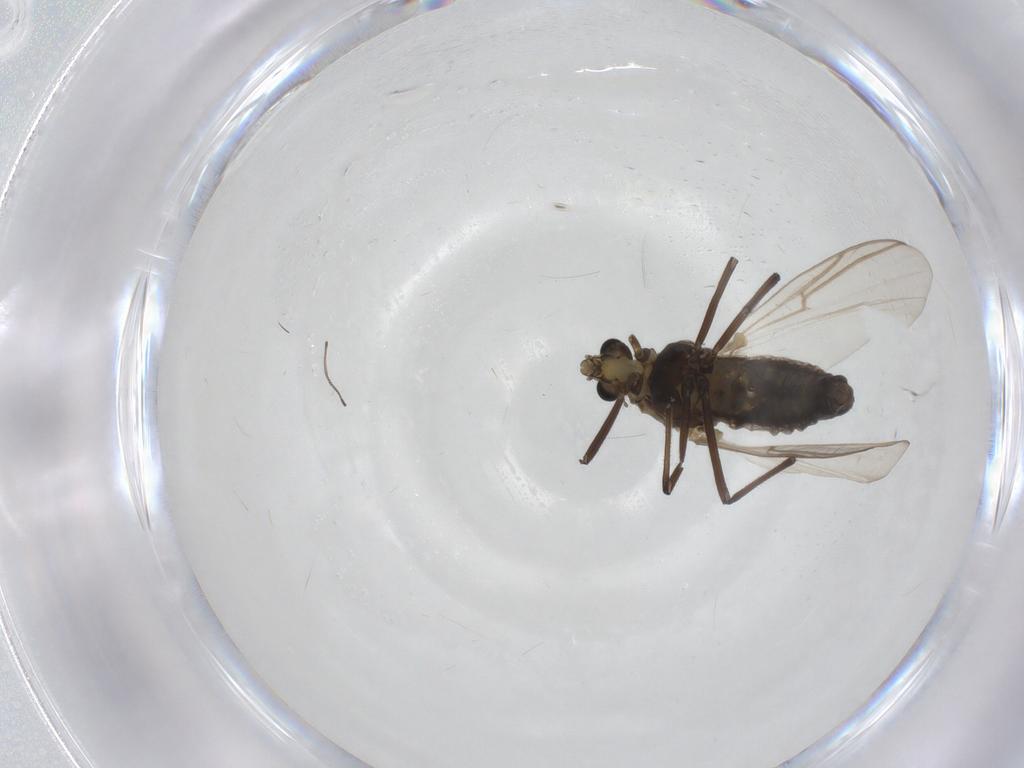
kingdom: Animalia
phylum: Arthropoda
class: Insecta
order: Diptera
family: Chironomidae
